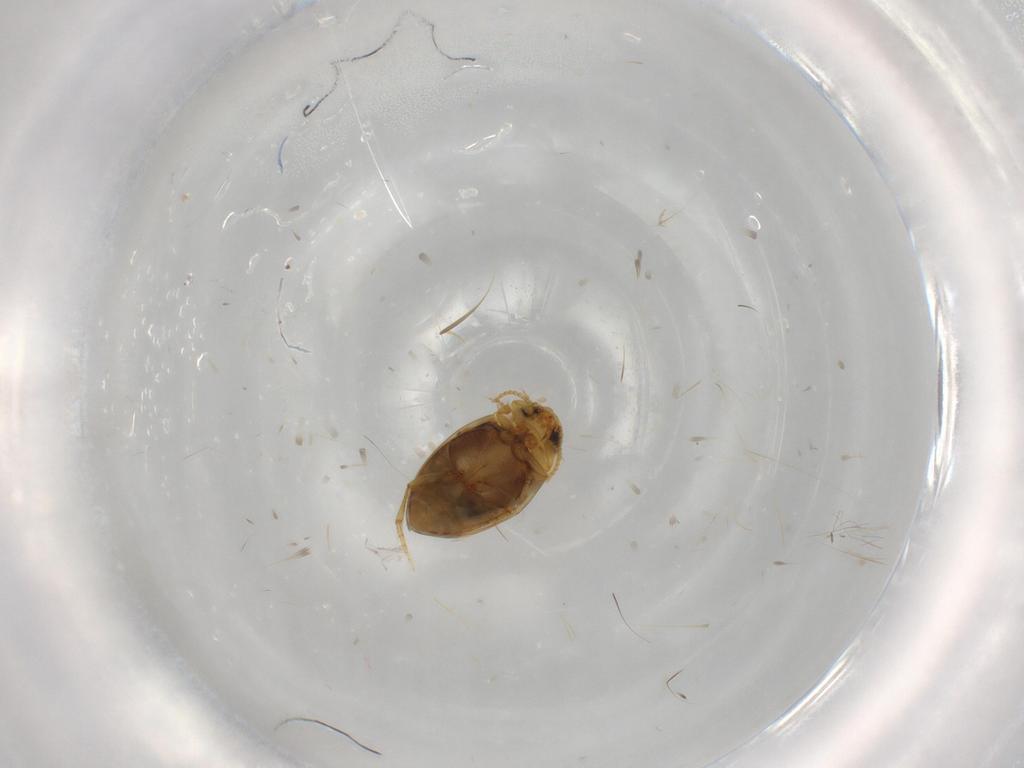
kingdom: Animalia
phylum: Arthropoda
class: Insecta
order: Coleoptera
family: Dytiscidae
